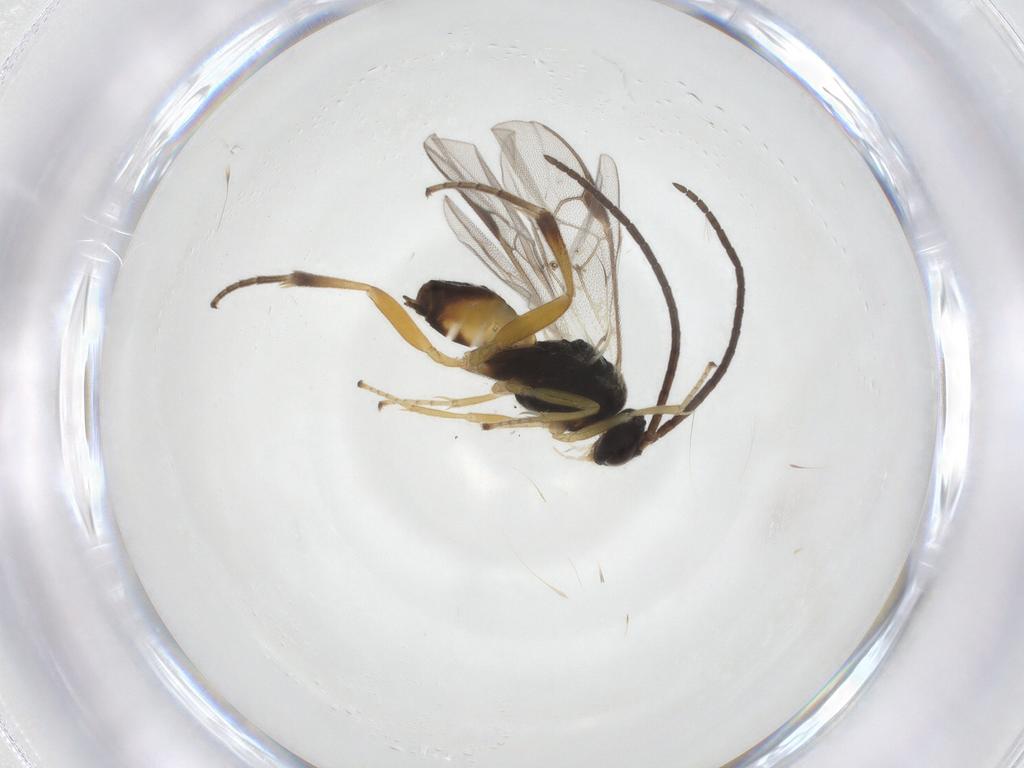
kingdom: Animalia
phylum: Arthropoda
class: Insecta
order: Hymenoptera
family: Braconidae
